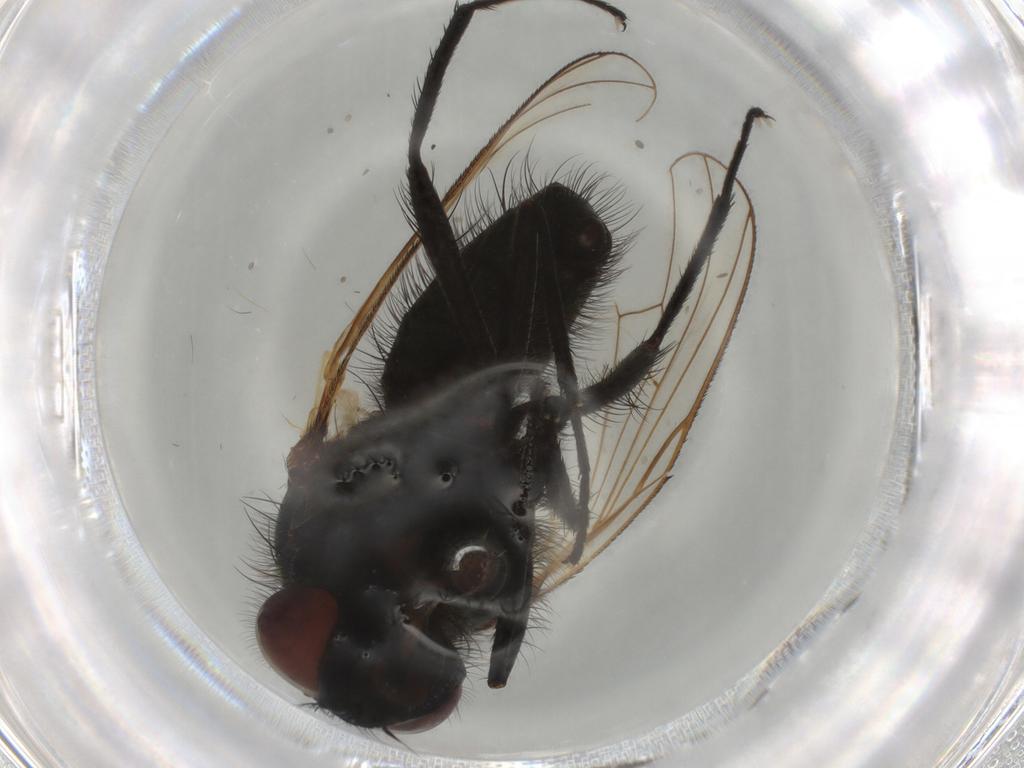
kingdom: Animalia
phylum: Arthropoda
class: Insecta
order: Diptera
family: Anthomyiidae
